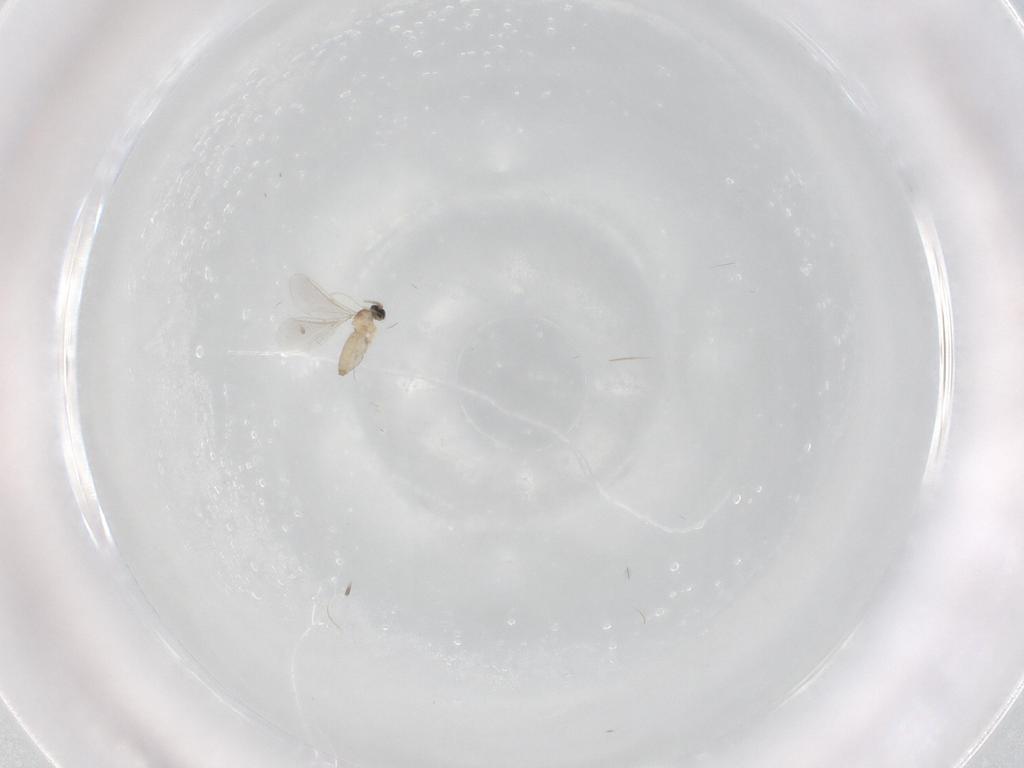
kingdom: Animalia
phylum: Arthropoda
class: Insecta
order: Diptera
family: Cecidomyiidae
